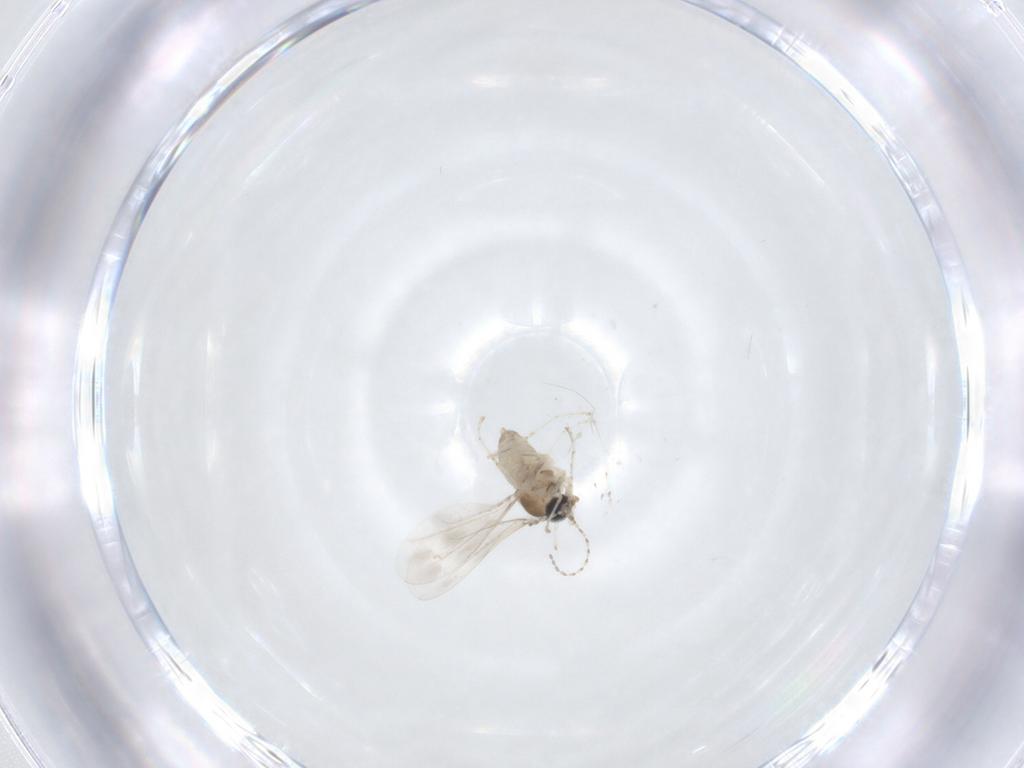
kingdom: Animalia
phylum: Arthropoda
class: Insecta
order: Diptera
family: Cecidomyiidae
